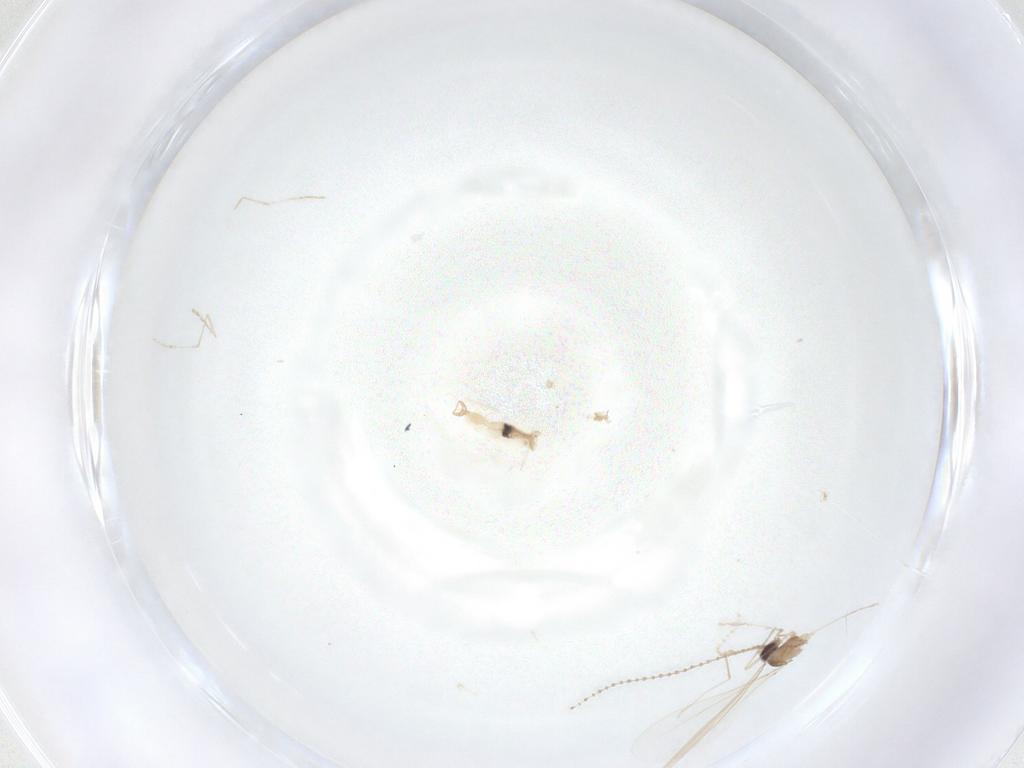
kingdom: Animalia
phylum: Arthropoda
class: Insecta
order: Diptera
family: Cecidomyiidae
